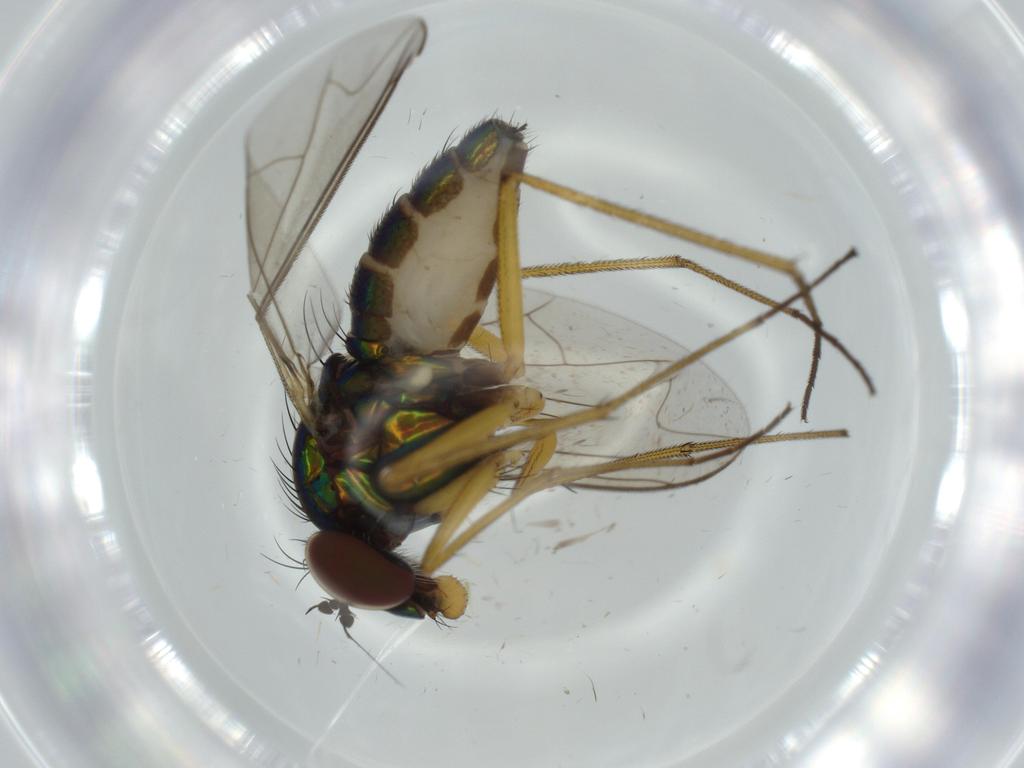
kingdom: Animalia
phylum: Arthropoda
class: Insecta
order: Diptera
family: Dolichopodidae
